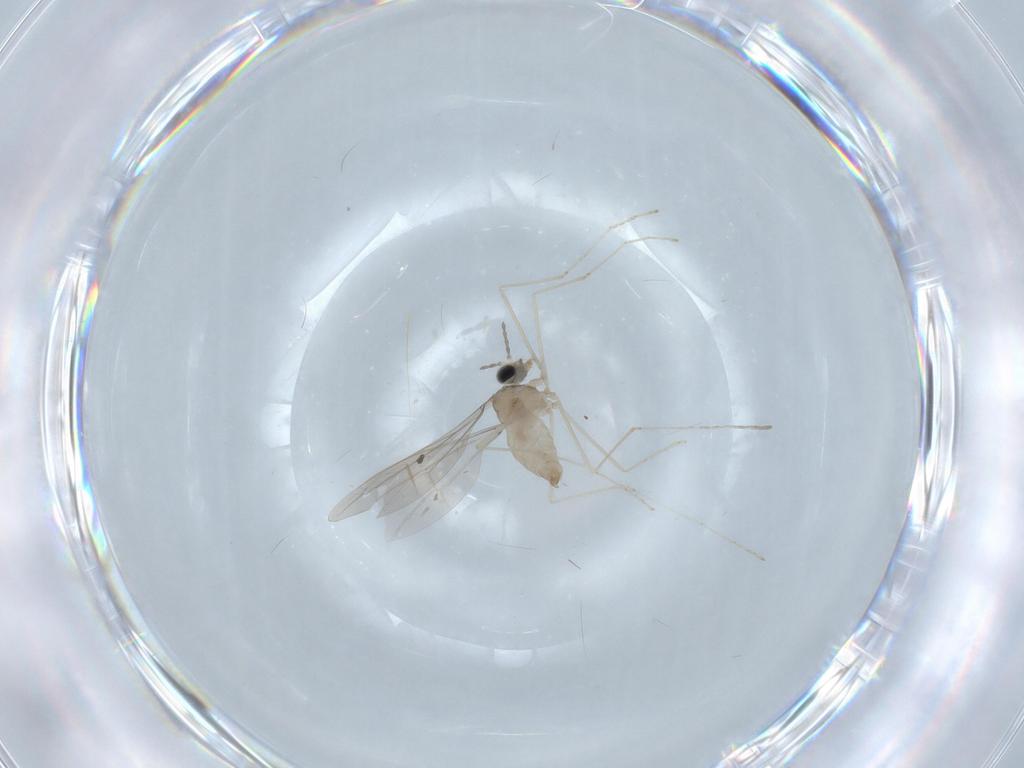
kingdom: Animalia
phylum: Arthropoda
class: Insecta
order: Diptera
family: Cecidomyiidae
